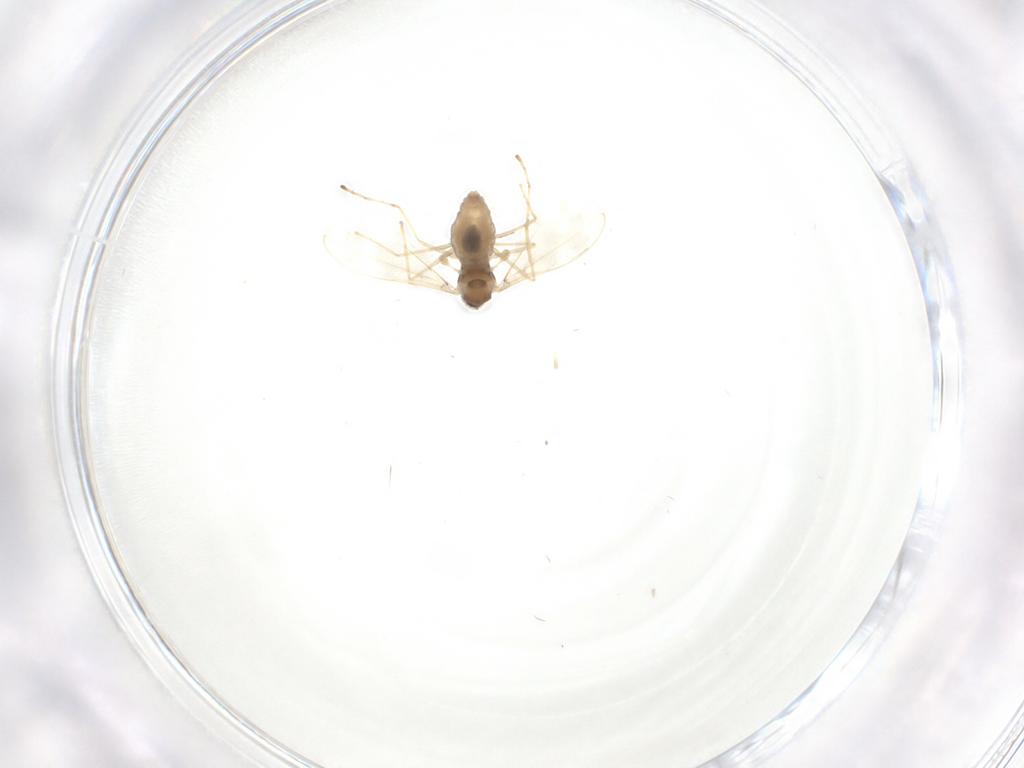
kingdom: Animalia
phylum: Arthropoda
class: Insecta
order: Diptera
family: Cecidomyiidae
